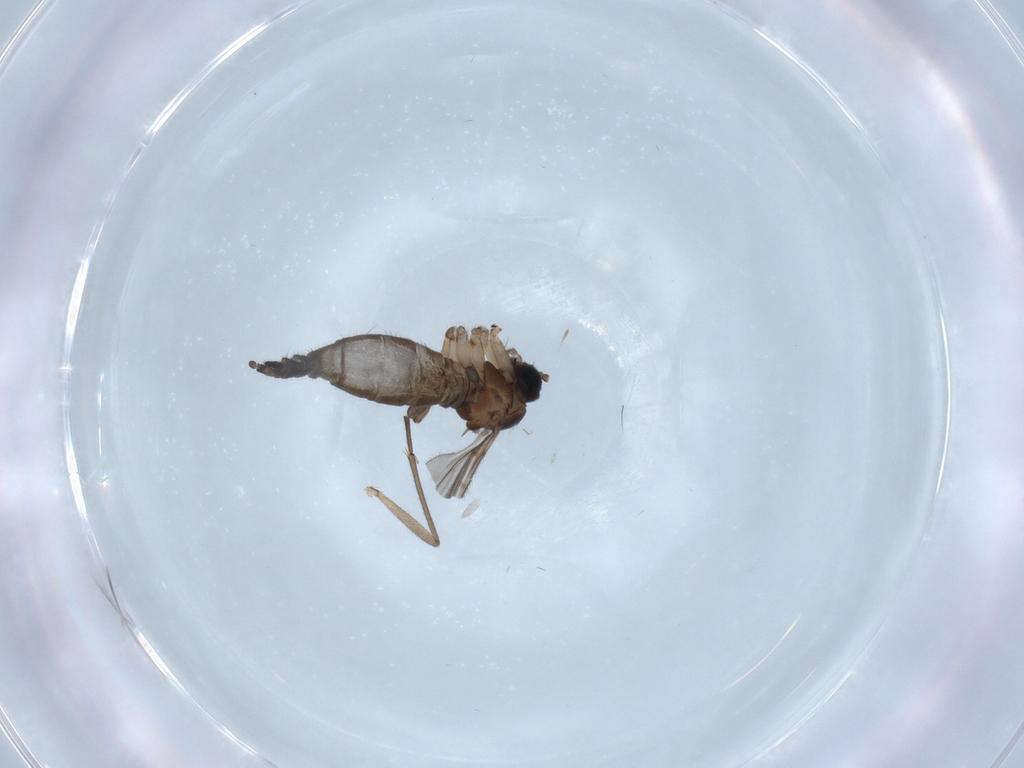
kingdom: Animalia
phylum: Arthropoda
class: Insecta
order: Diptera
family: Sciaridae
